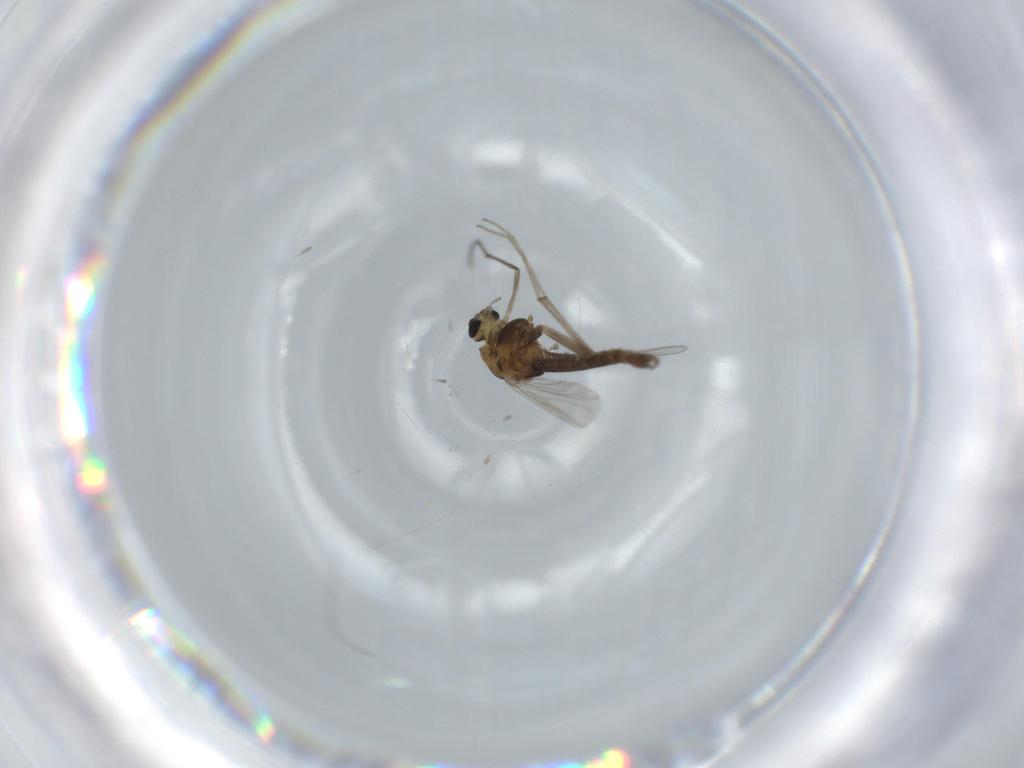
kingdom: Animalia
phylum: Arthropoda
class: Insecta
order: Diptera
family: Chironomidae
